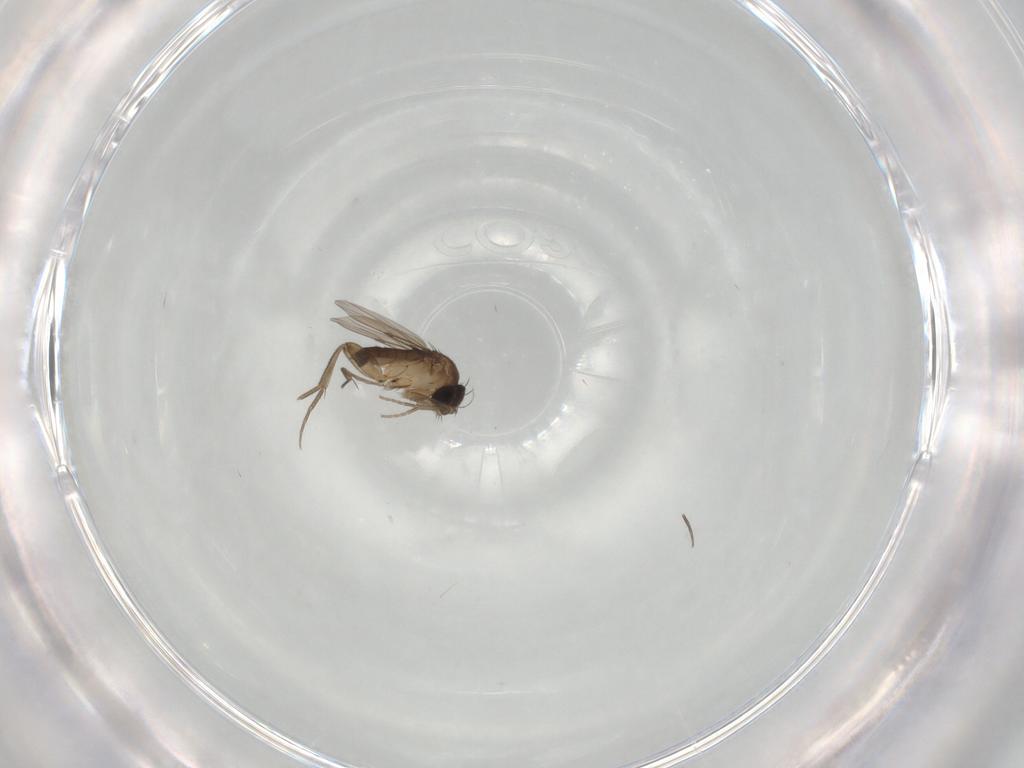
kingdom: Animalia
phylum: Arthropoda
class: Insecta
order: Diptera
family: Phoridae
